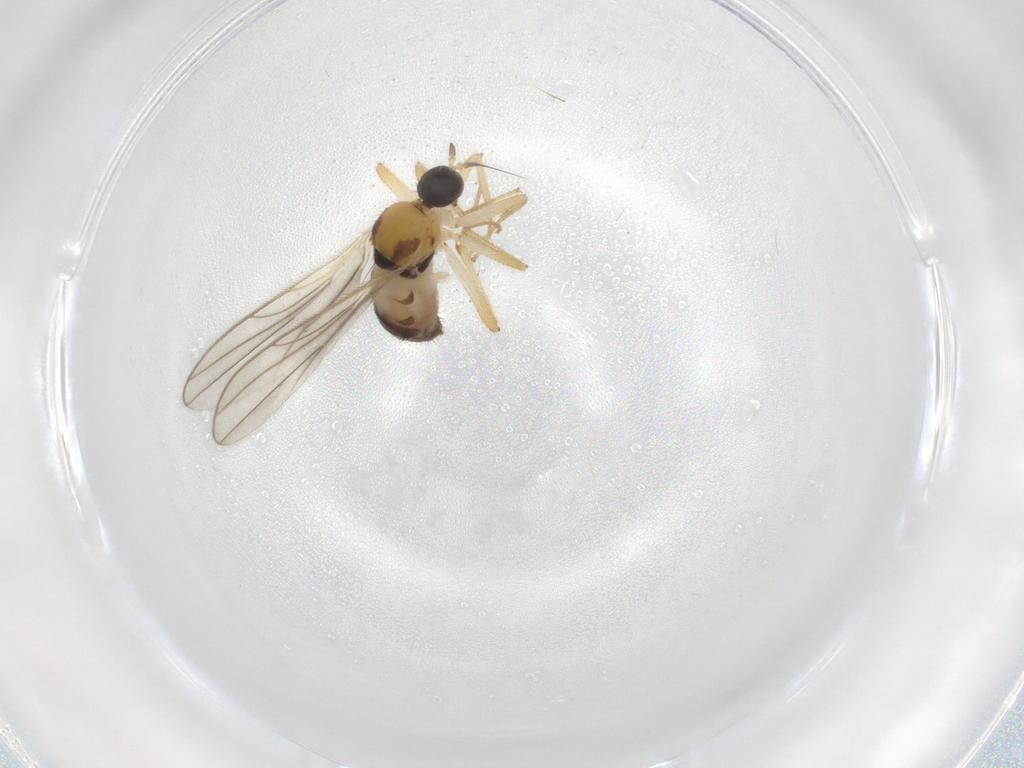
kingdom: Animalia
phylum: Arthropoda
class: Insecta
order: Diptera
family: Hybotidae
